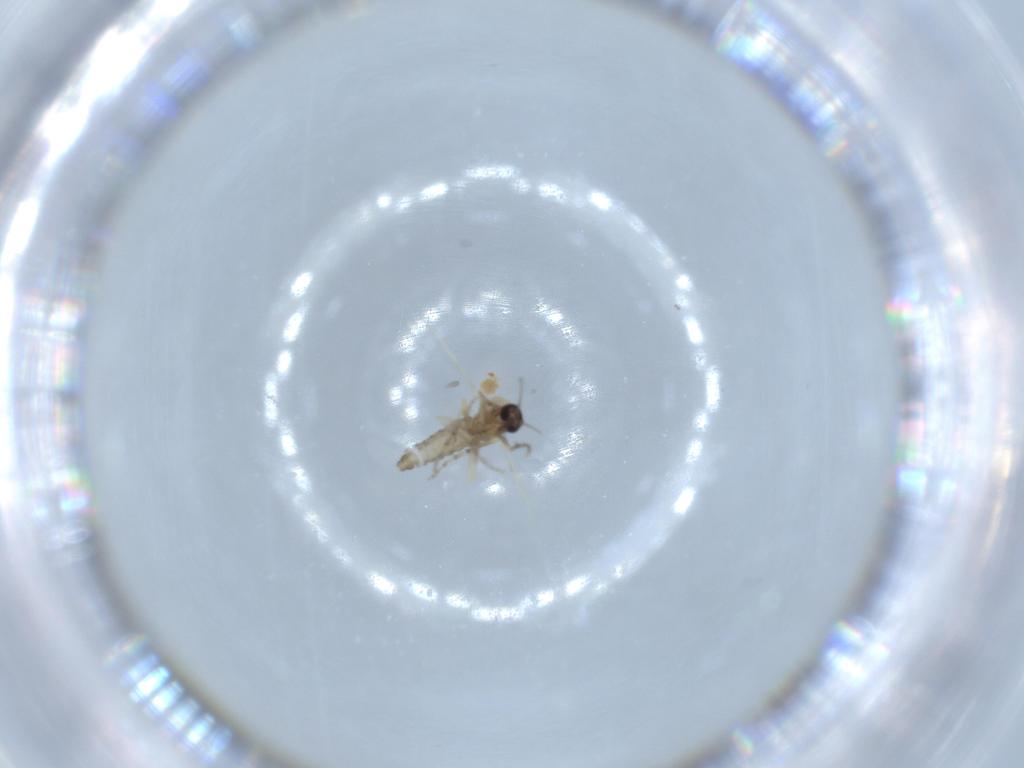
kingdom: Animalia
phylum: Arthropoda
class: Insecta
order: Diptera
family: Ceratopogonidae
